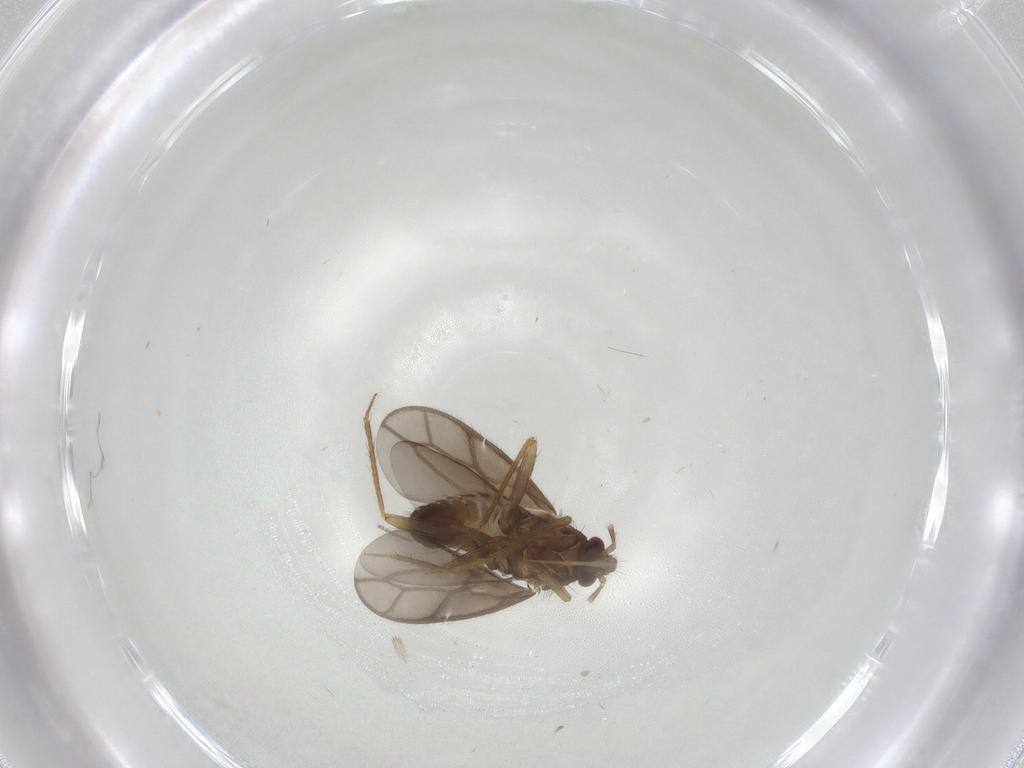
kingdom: Animalia
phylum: Arthropoda
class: Insecta
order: Hemiptera
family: Ceratocombidae
